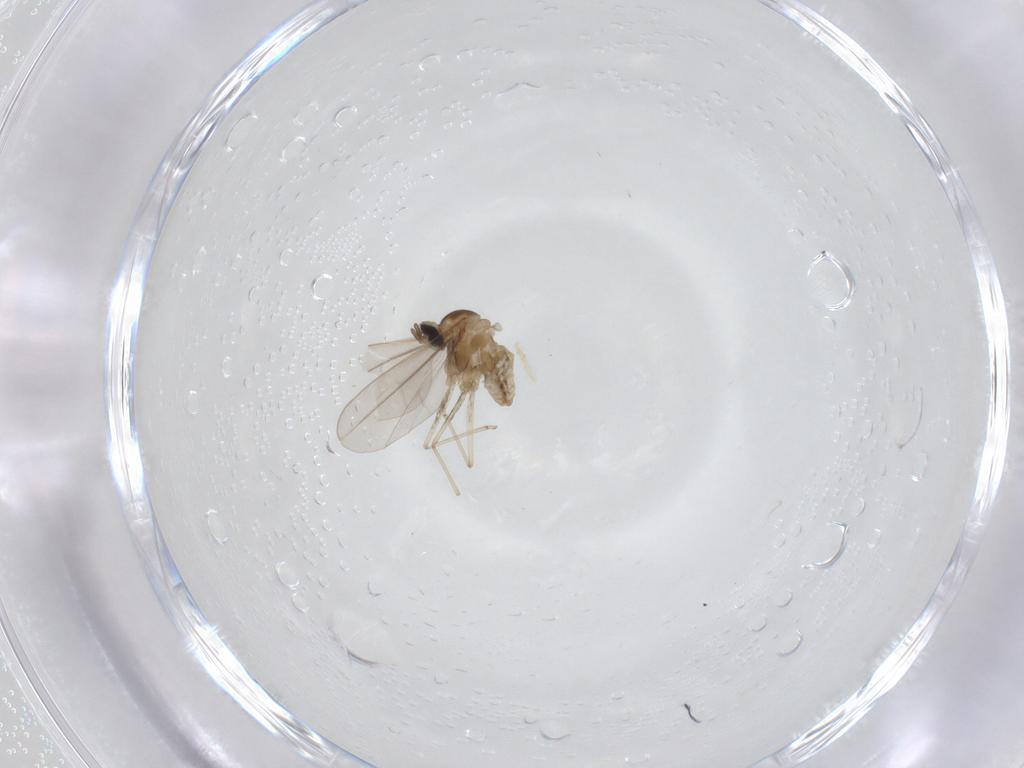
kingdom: Animalia
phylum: Arthropoda
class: Insecta
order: Diptera
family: Cecidomyiidae
